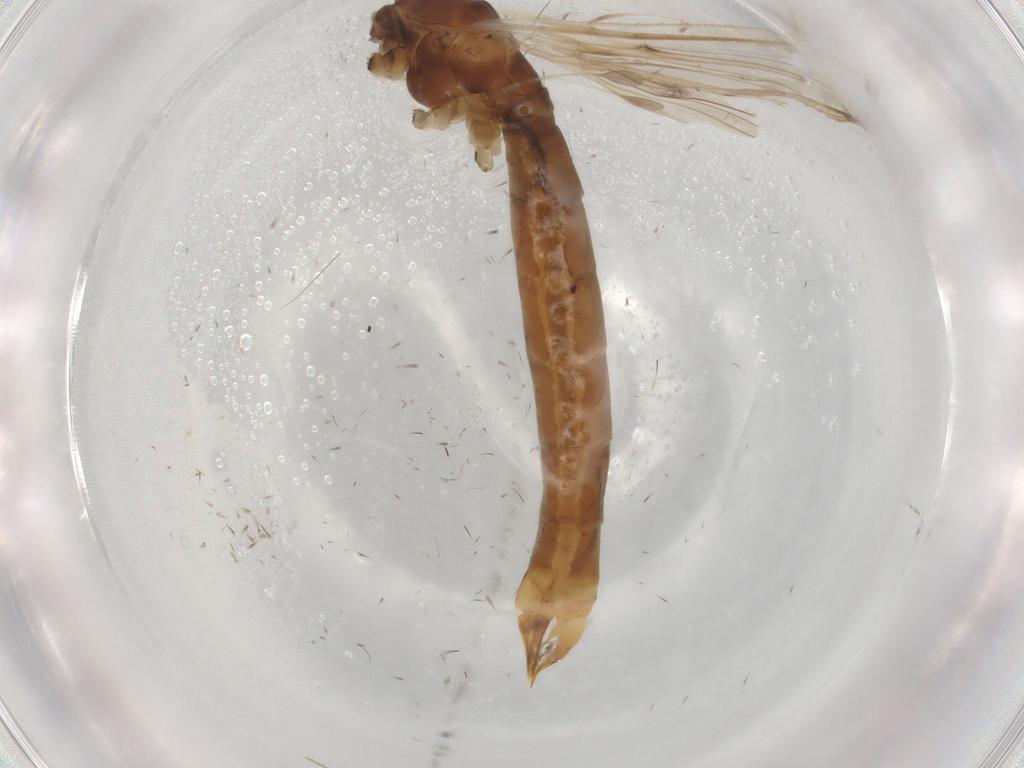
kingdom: Animalia
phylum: Arthropoda
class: Insecta
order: Diptera
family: Limoniidae
